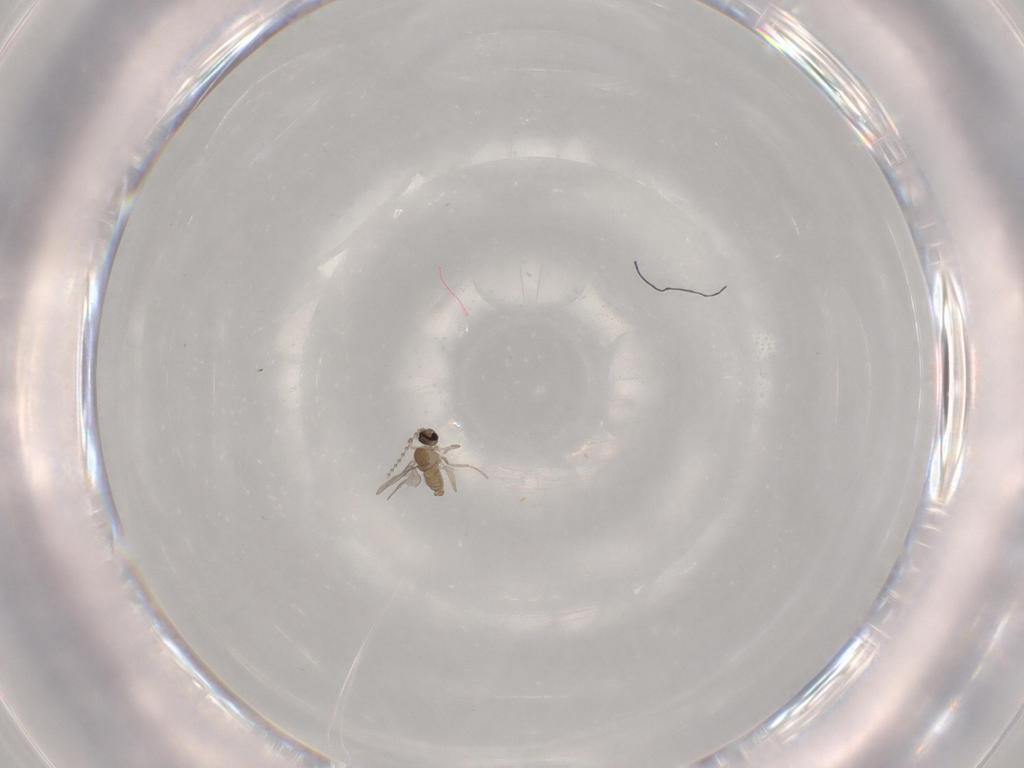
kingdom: Animalia
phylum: Arthropoda
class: Insecta
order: Diptera
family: Cecidomyiidae
